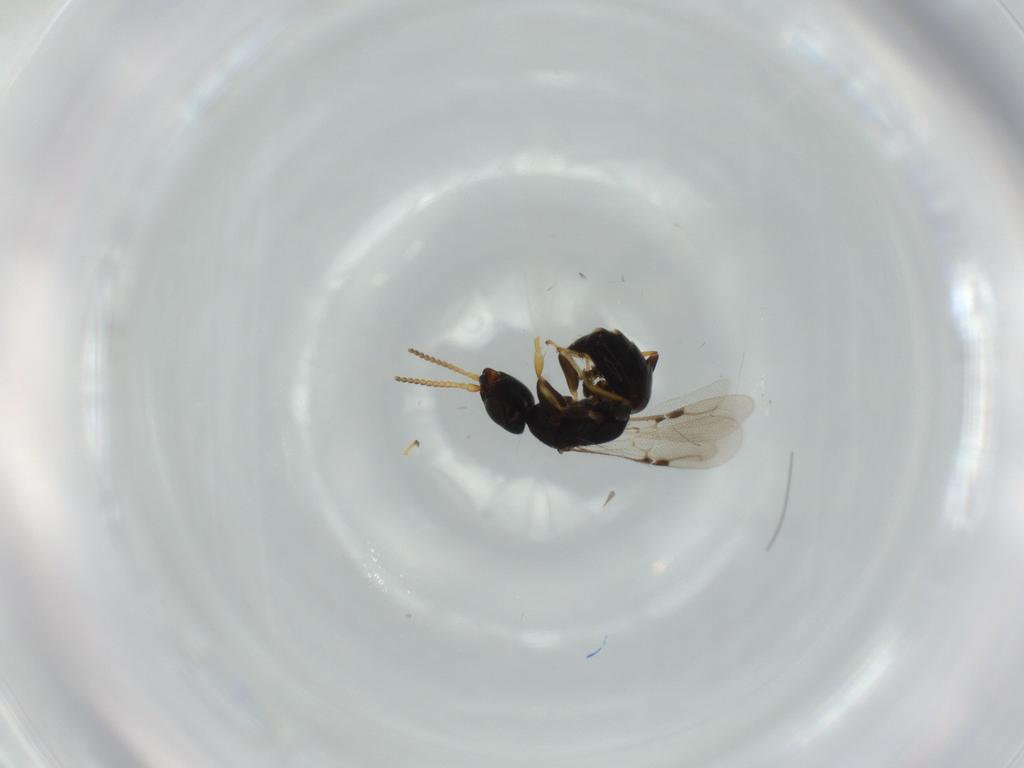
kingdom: Animalia
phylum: Arthropoda
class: Insecta
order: Hymenoptera
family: Bethylidae
